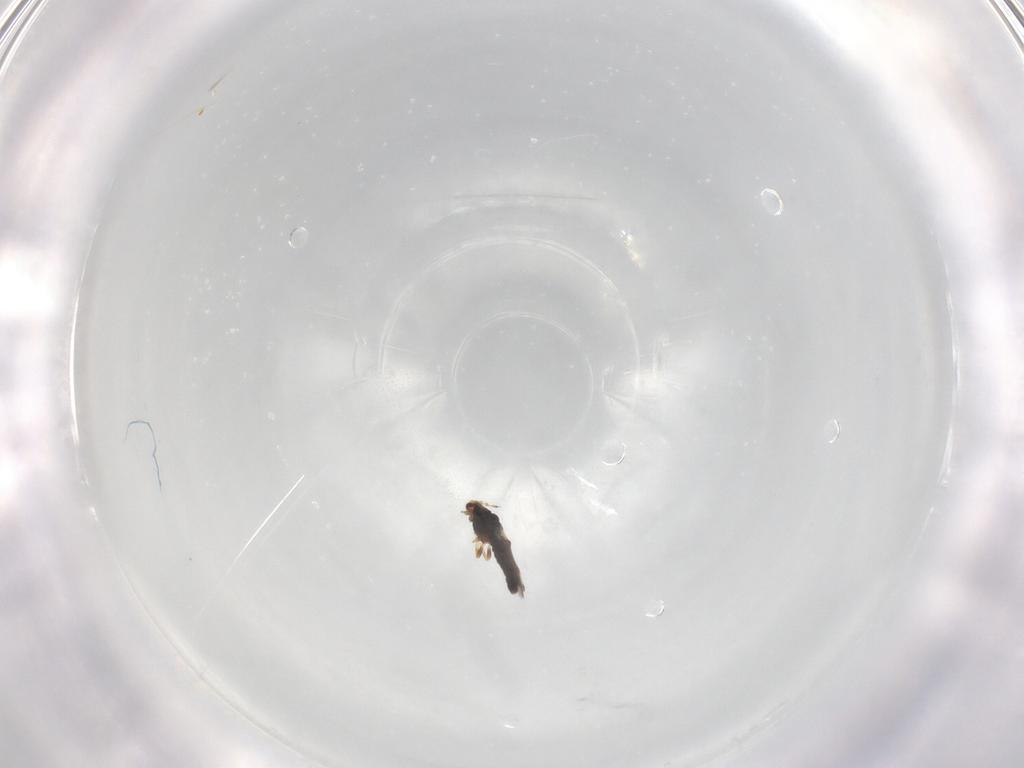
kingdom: Animalia
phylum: Arthropoda
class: Insecta
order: Thysanoptera
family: Thripidae
